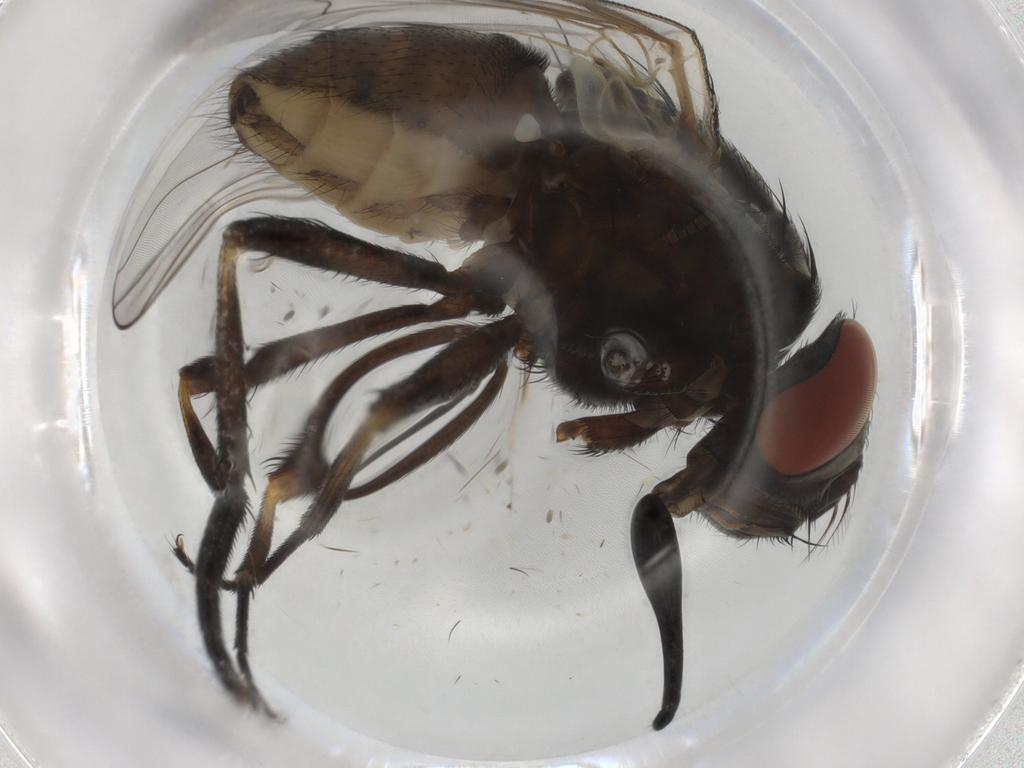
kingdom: Animalia
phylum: Arthropoda
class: Insecta
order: Diptera
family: Muscidae
